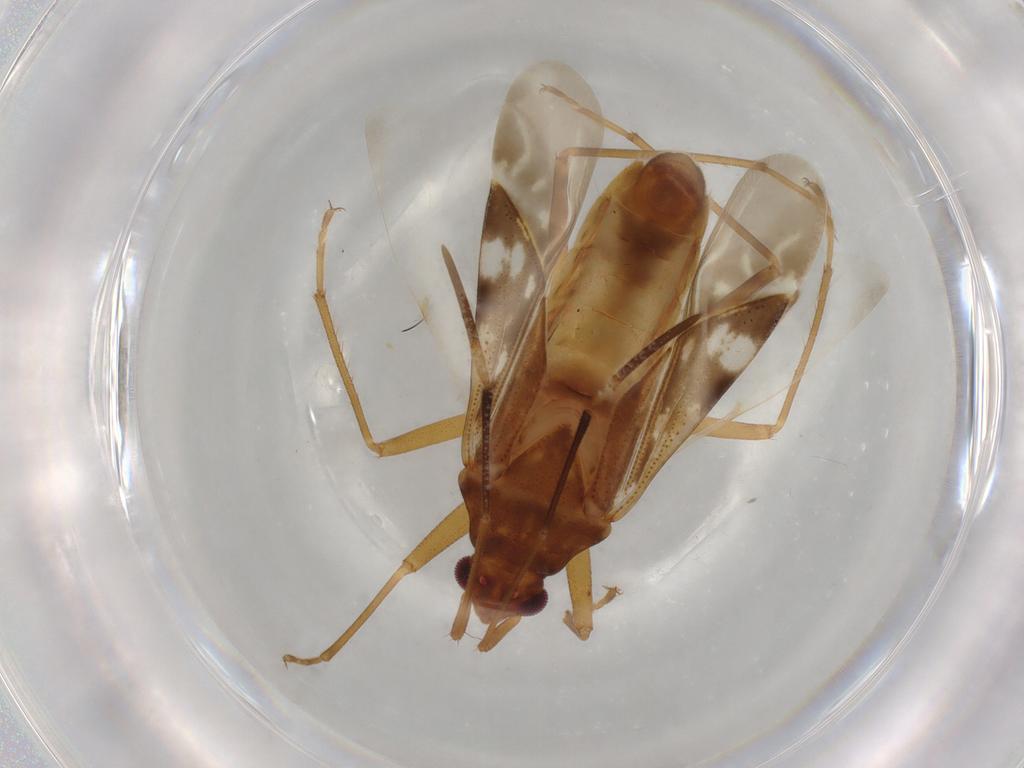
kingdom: Animalia
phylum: Arthropoda
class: Insecta
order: Hemiptera
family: Rhyparochromidae
